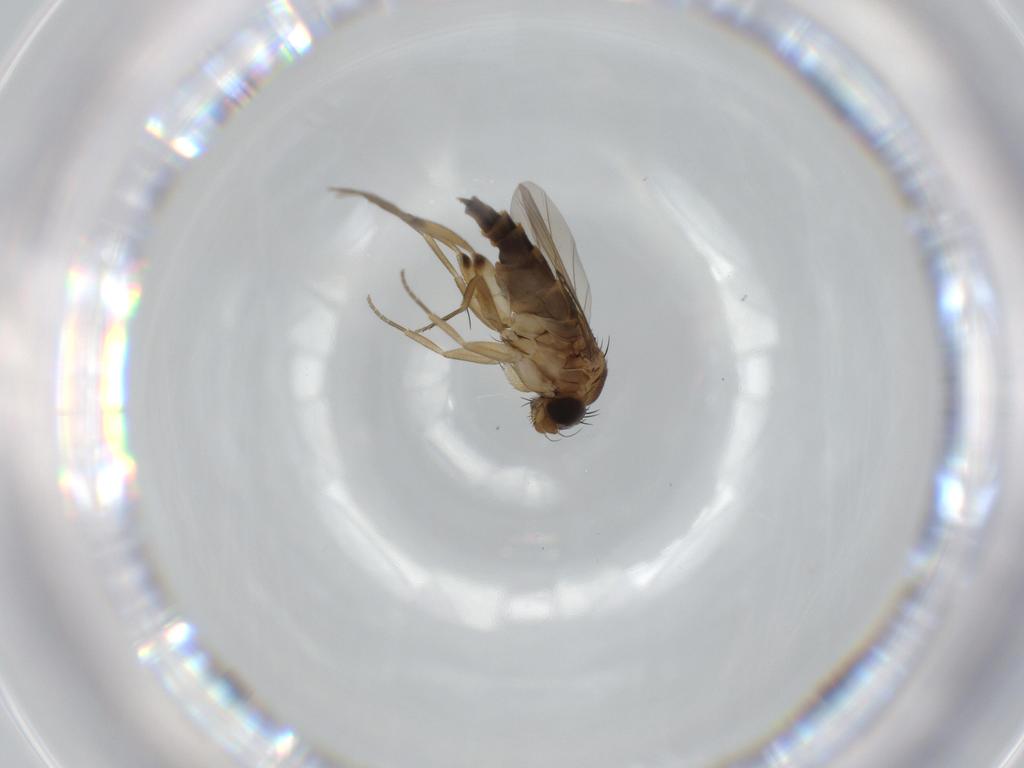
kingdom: Animalia
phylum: Arthropoda
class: Insecta
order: Diptera
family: Phoridae
